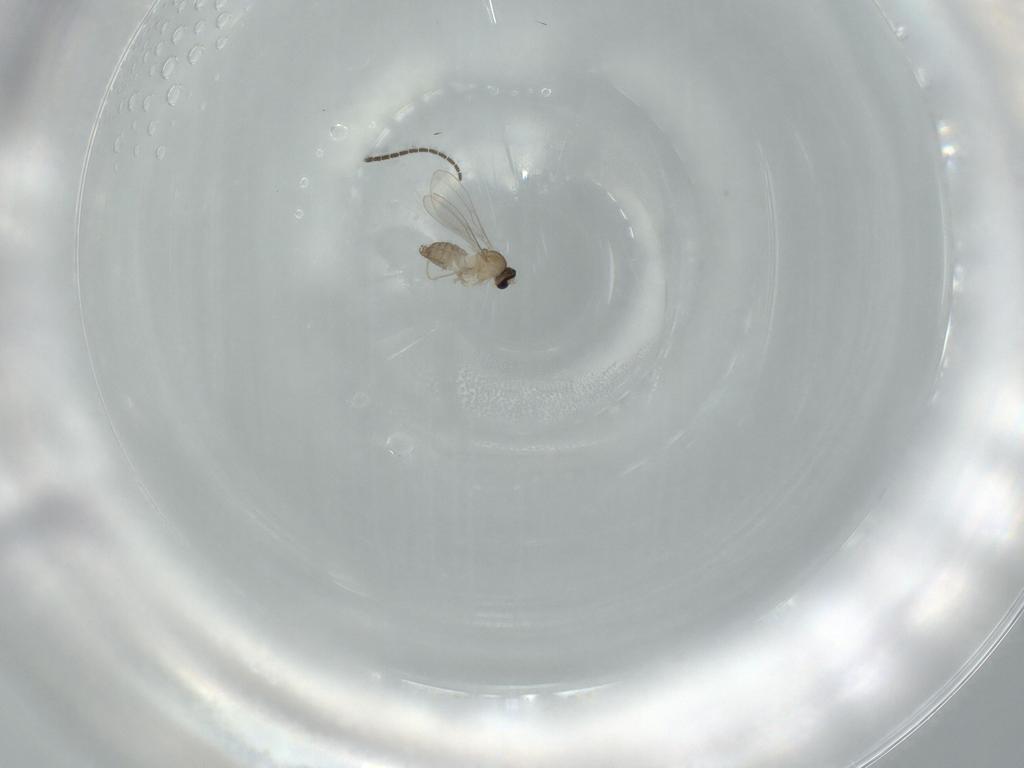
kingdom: Animalia
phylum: Arthropoda
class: Insecta
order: Diptera
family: Cecidomyiidae
